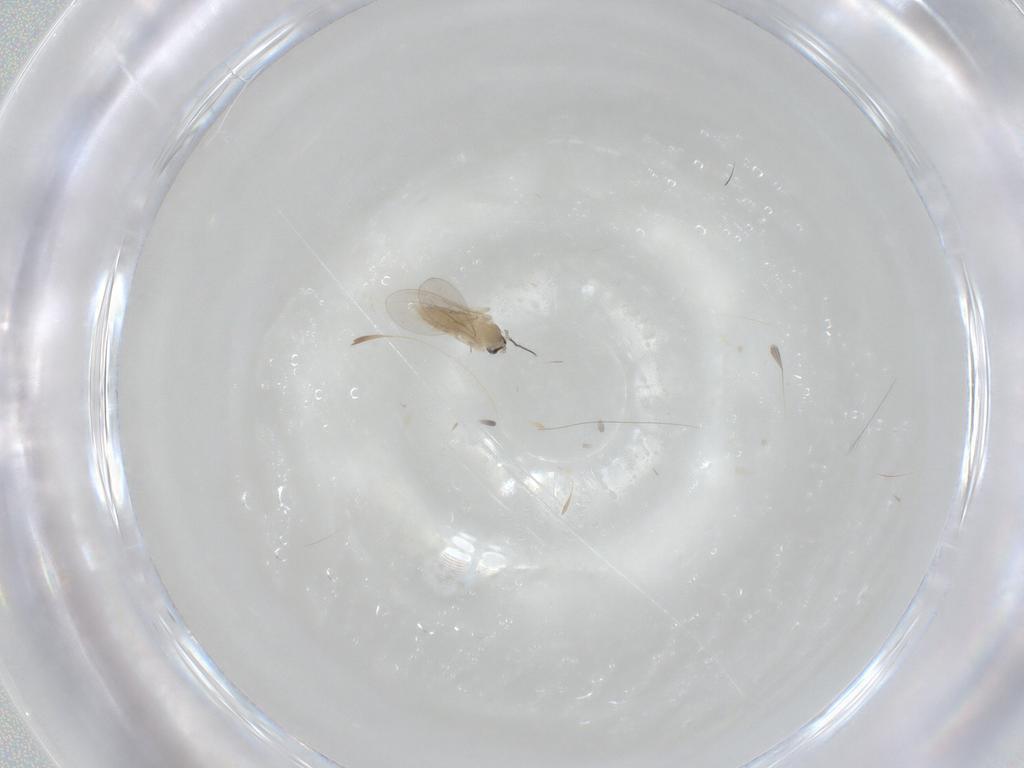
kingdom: Animalia
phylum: Arthropoda
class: Insecta
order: Diptera
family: Cecidomyiidae
